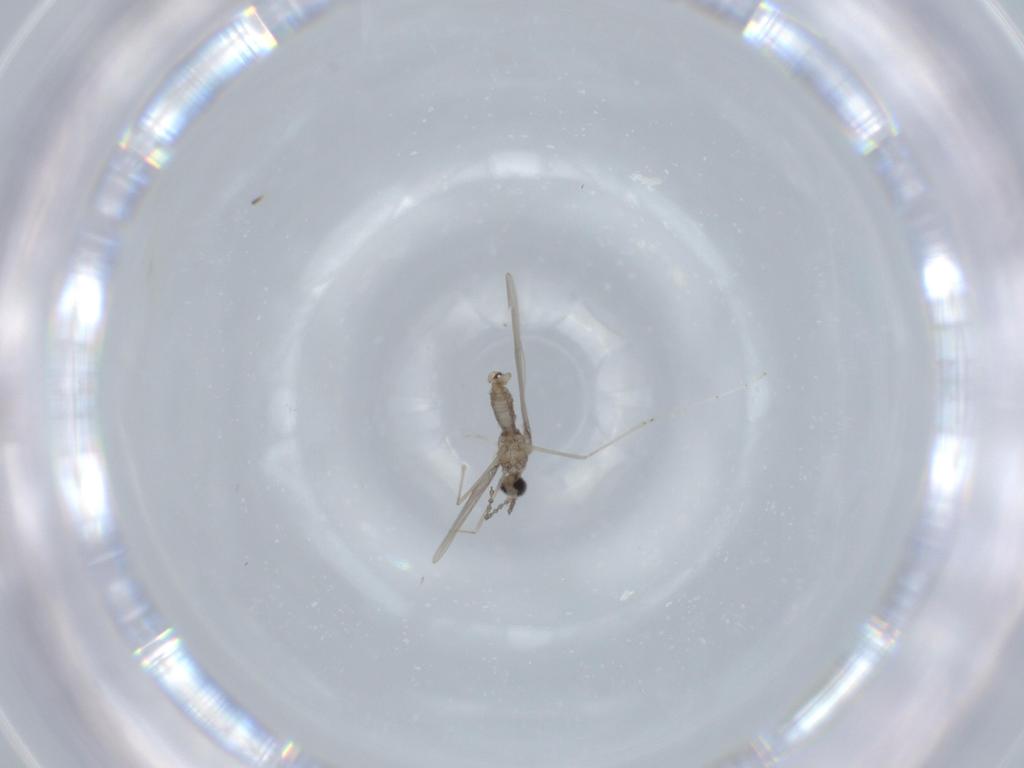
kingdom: Animalia
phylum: Arthropoda
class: Insecta
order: Diptera
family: Cecidomyiidae
